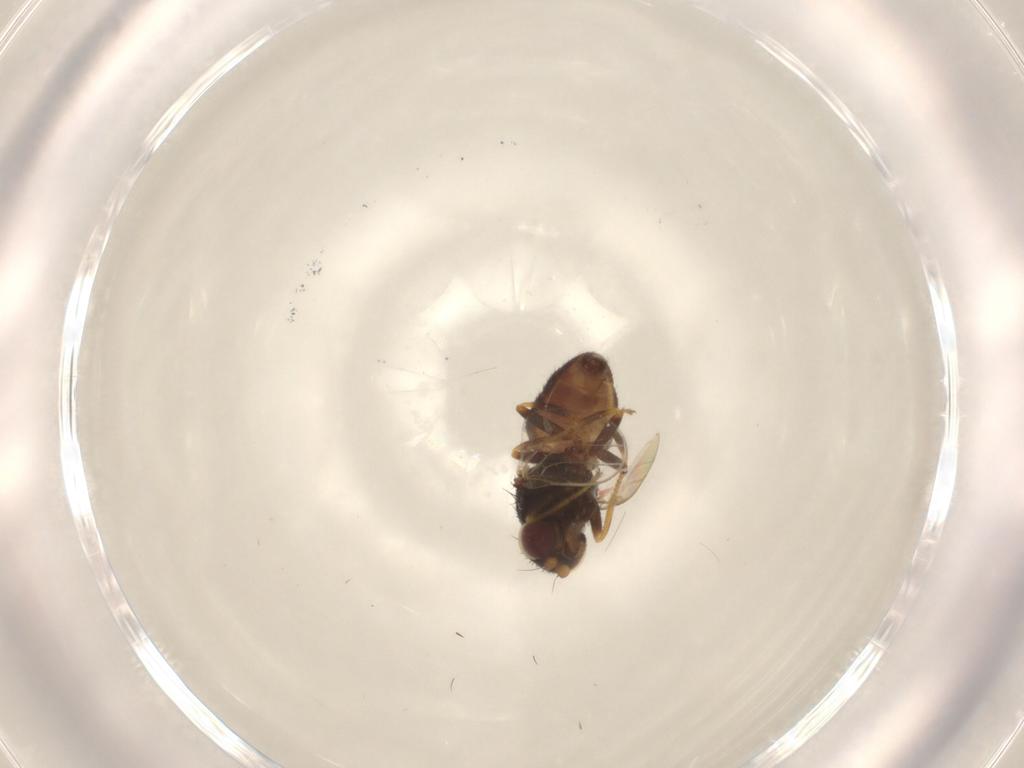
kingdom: Animalia
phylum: Arthropoda
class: Insecta
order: Diptera
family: Chloropidae
